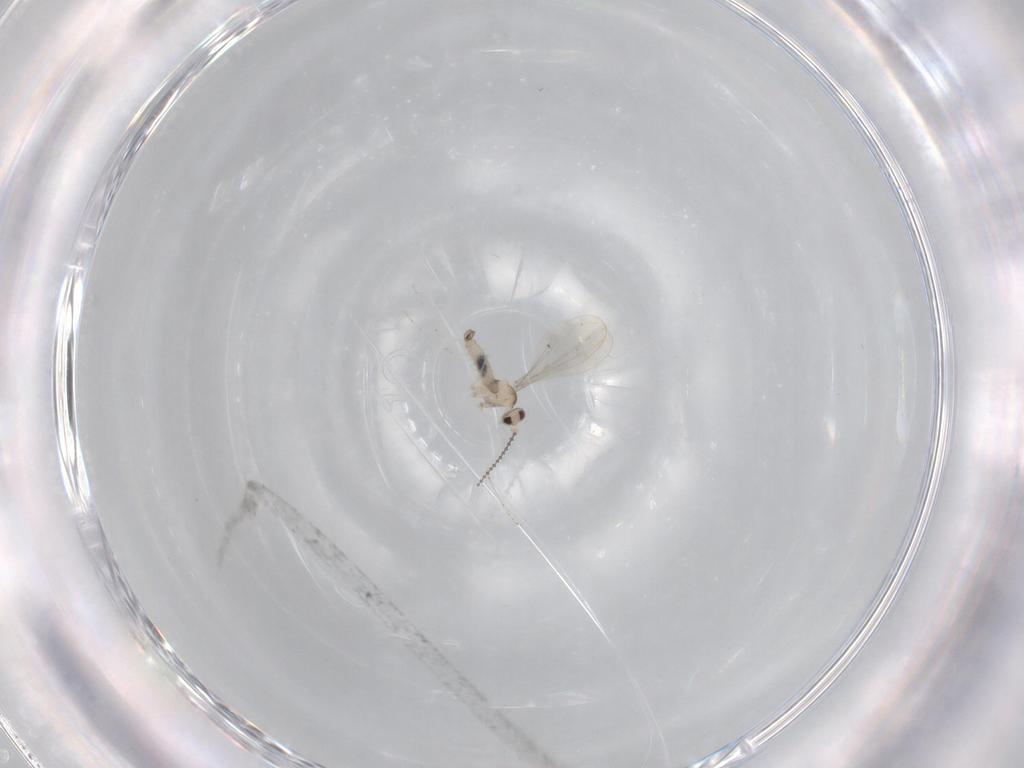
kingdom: Animalia
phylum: Arthropoda
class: Insecta
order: Diptera
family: Cecidomyiidae
